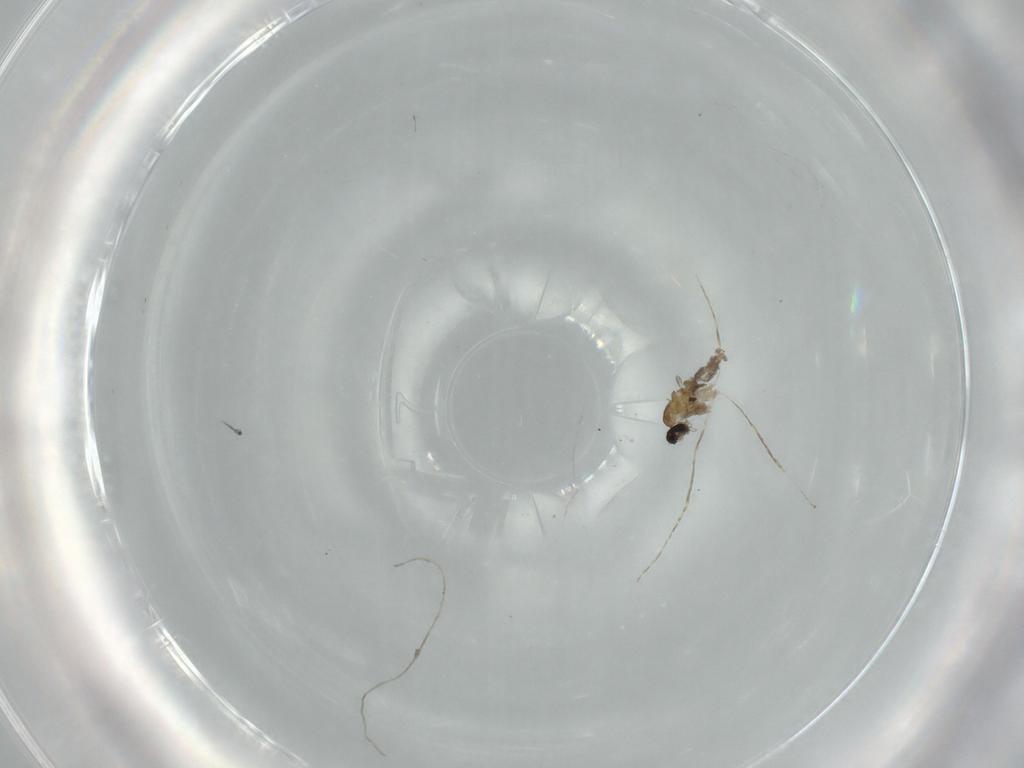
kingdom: Animalia
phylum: Arthropoda
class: Insecta
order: Diptera
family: Cecidomyiidae
